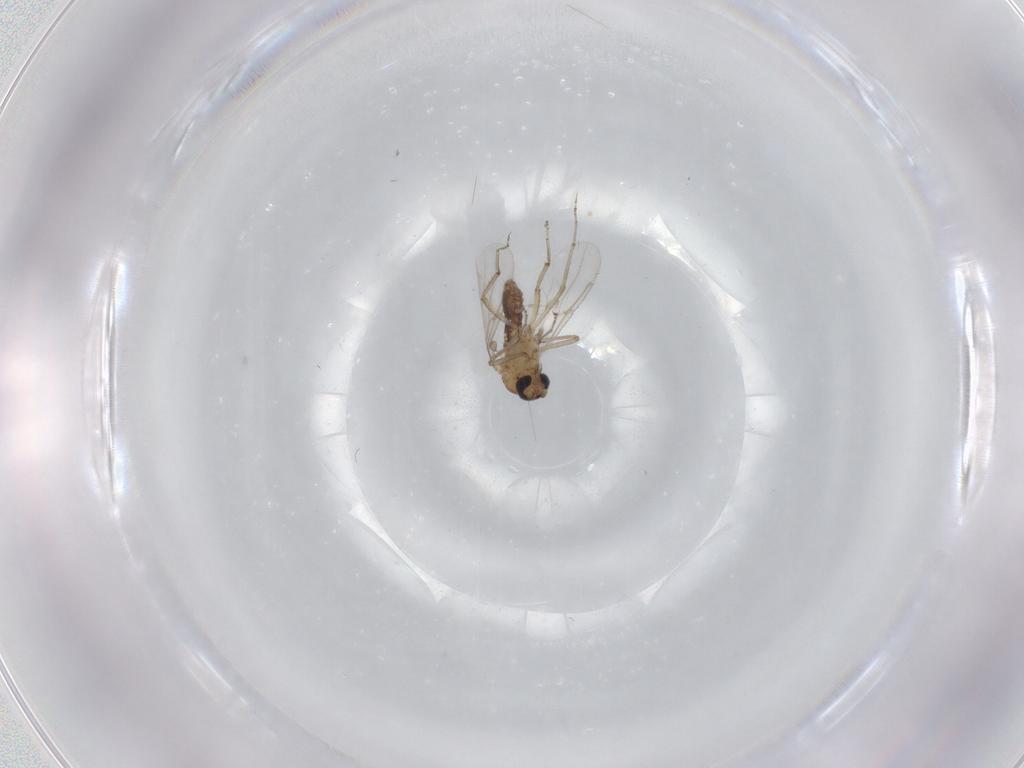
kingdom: Animalia
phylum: Arthropoda
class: Insecta
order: Diptera
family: Ceratopogonidae
